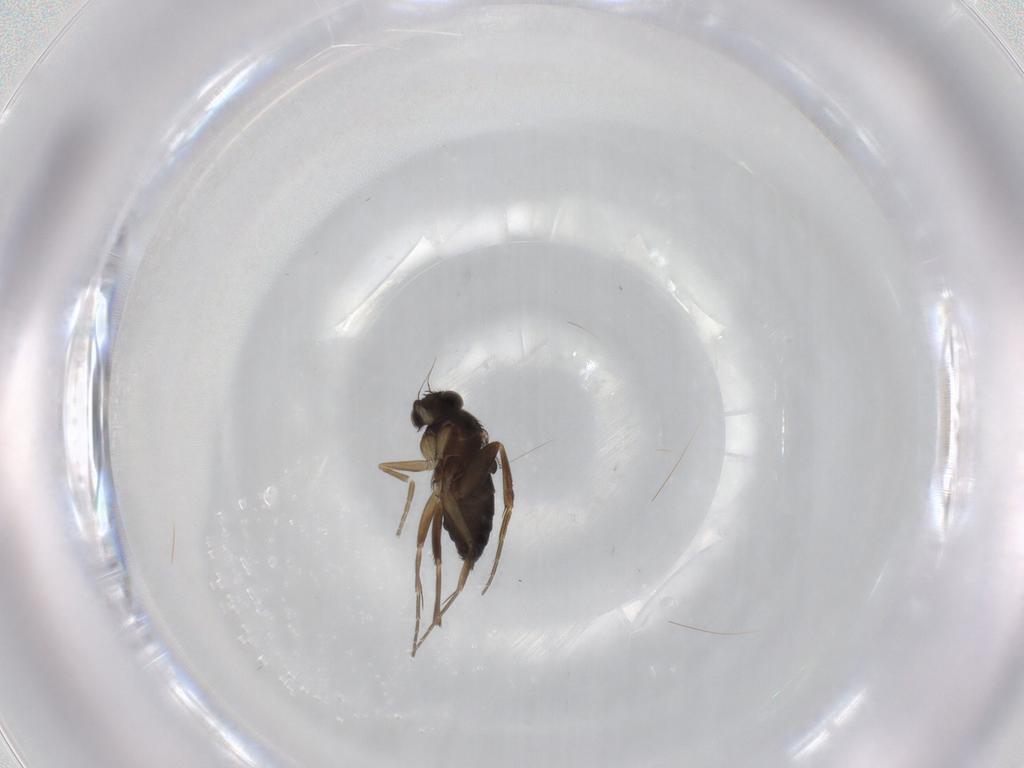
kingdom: Animalia
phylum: Arthropoda
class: Insecta
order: Diptera
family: Phoridae
